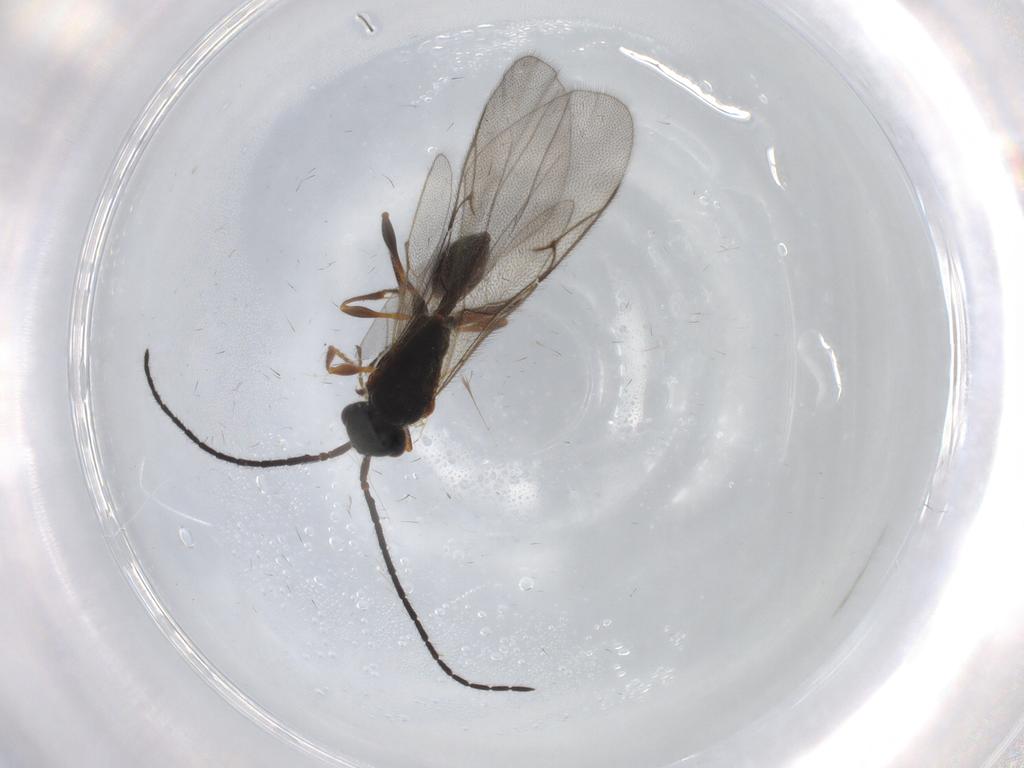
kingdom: Animalia
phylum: Arthropoda
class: Insecta
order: Hymenoptera
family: Diapriidae
